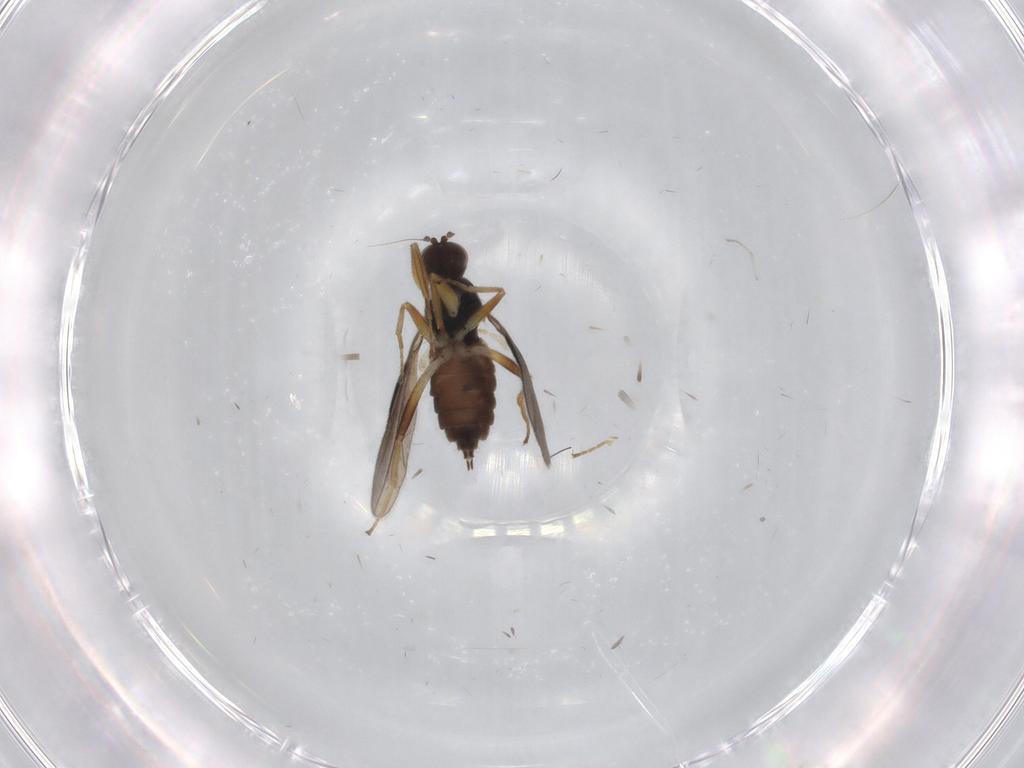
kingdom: Animalia
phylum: Arthropoda
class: Insecta
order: Diptera
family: Hybotidae
